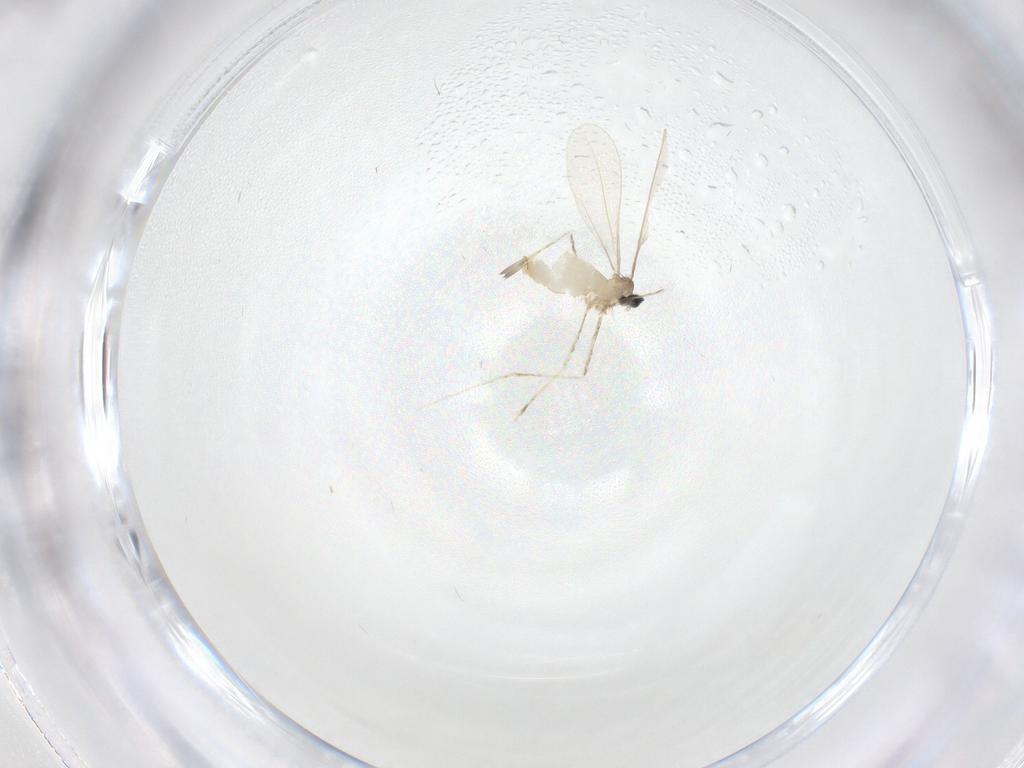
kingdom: Animalia
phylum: Arthropoda
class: Insecta
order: Diptera
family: Cecidomyiidae
